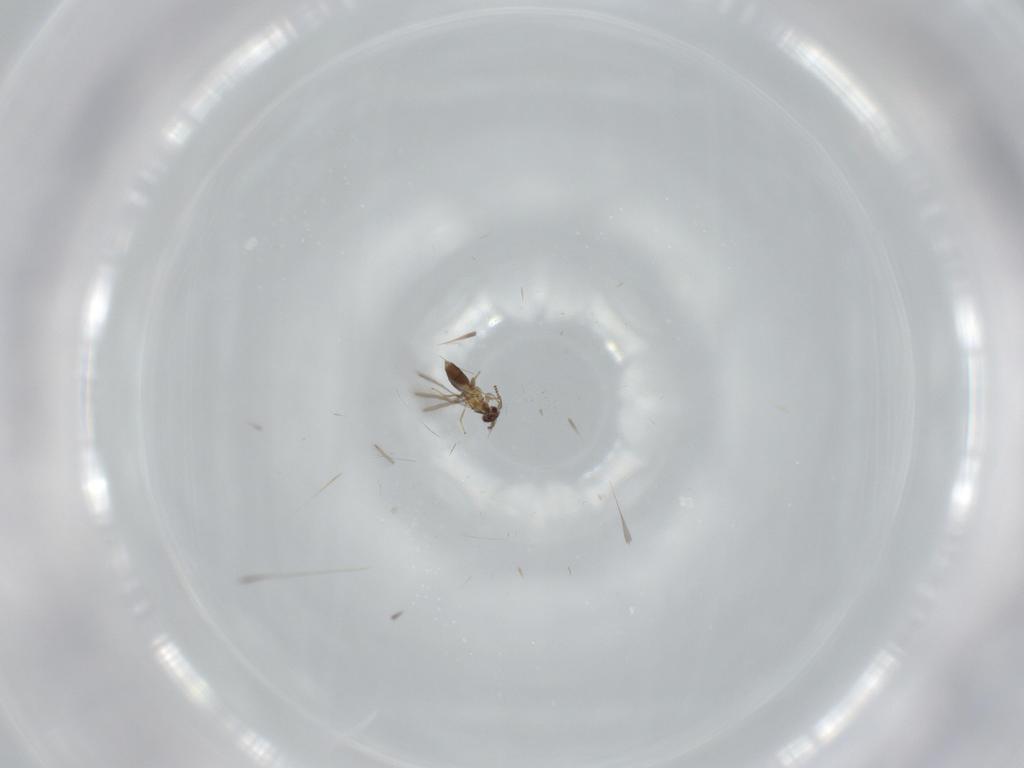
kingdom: Animalia
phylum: Arthropoda
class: Insecta
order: Hymenoptera
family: Mymaridae
